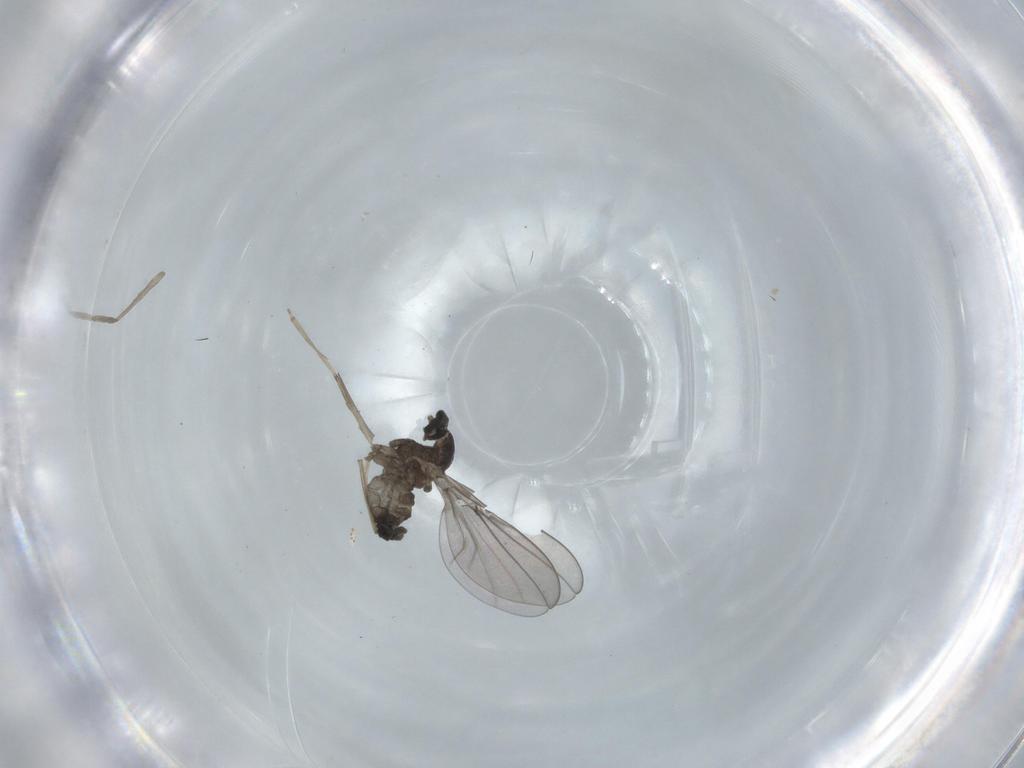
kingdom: Animalia
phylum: Arthropoda
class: Insecta
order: Diptera
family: Cecidomyiidae
